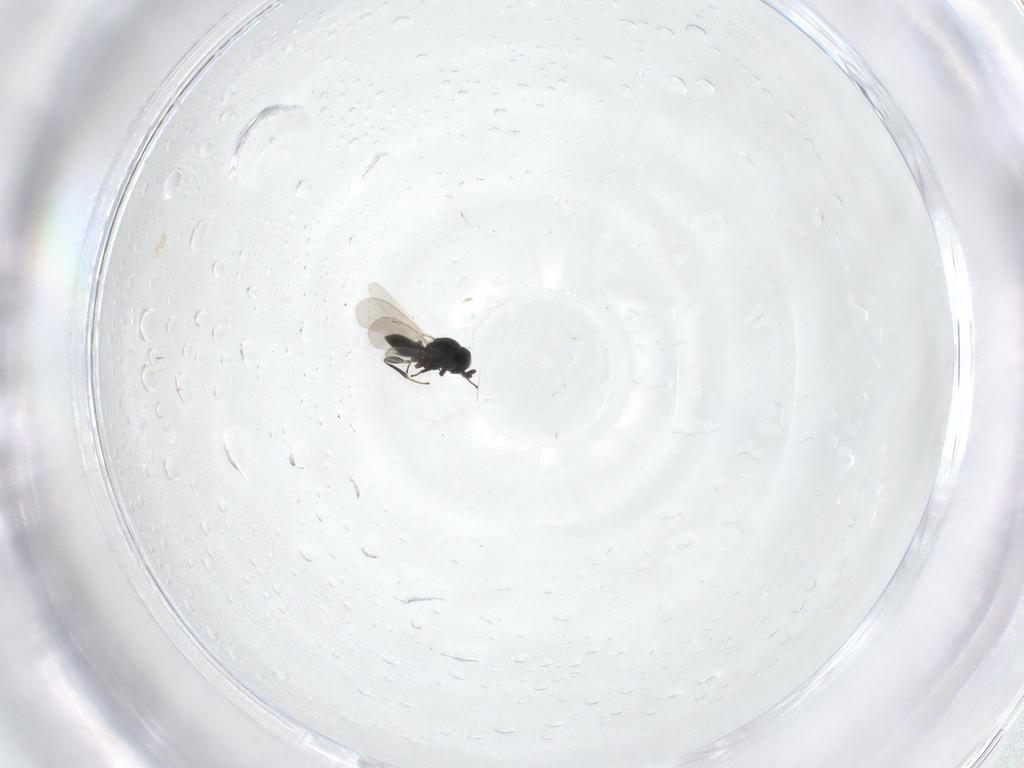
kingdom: Animalia
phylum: Arthropoda
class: Insecta
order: Hymenoptera
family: Platygastridae
